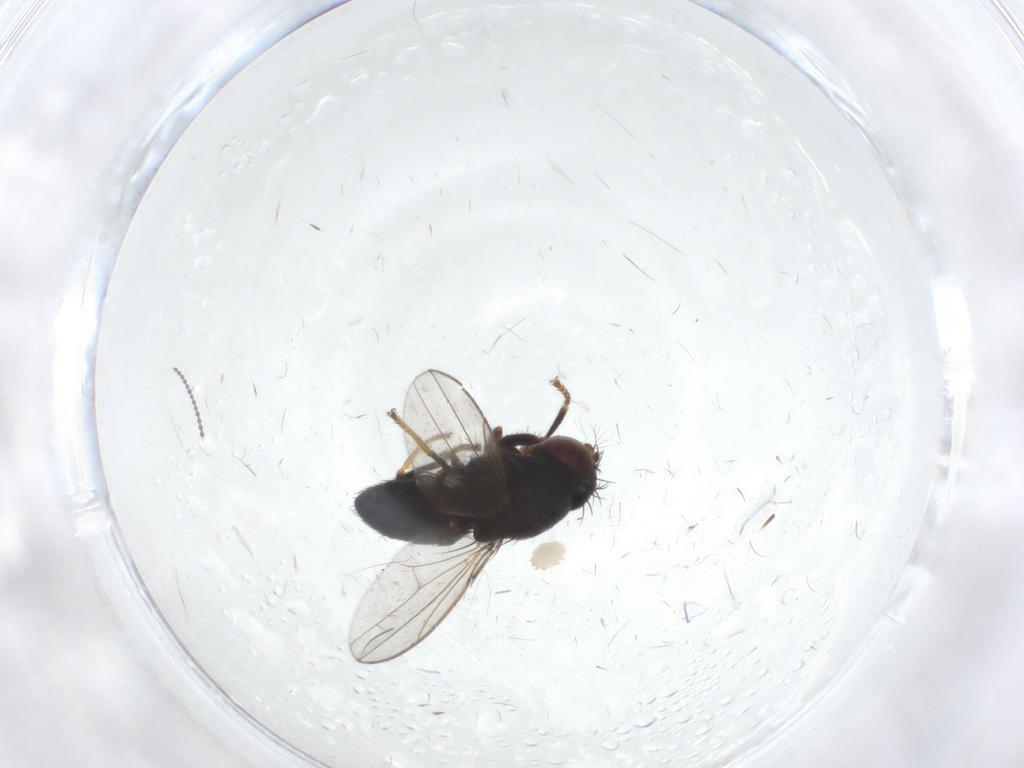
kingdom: Animalia
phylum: Arthropoda
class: Insecta
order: Diptera
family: Phoridae
